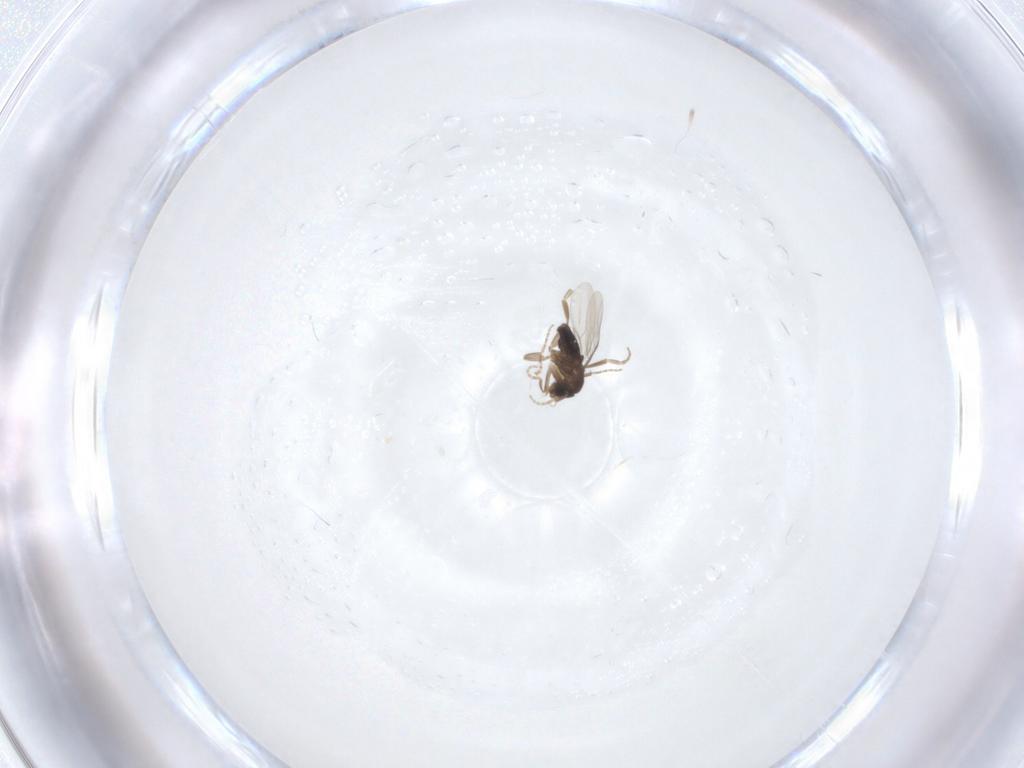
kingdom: Animalia
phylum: Arthropoda
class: Insecta
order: Diptera
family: Phoridae
